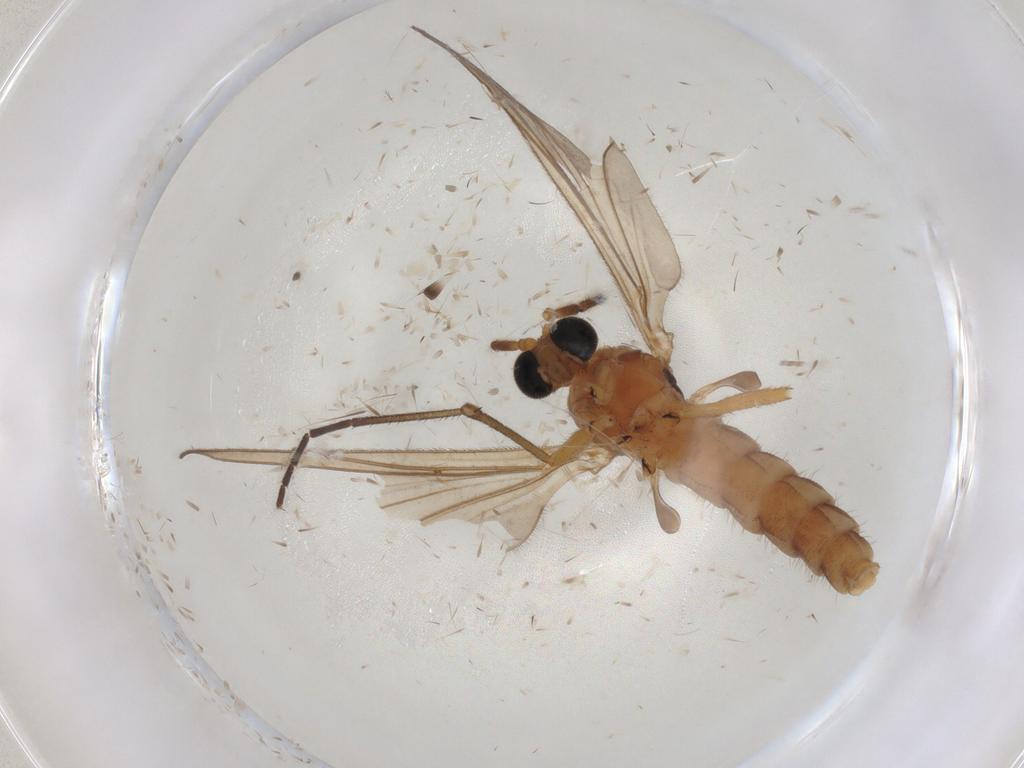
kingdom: Animalia
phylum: Arthropoda
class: Insecta
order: Diptera
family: Sciaridae
